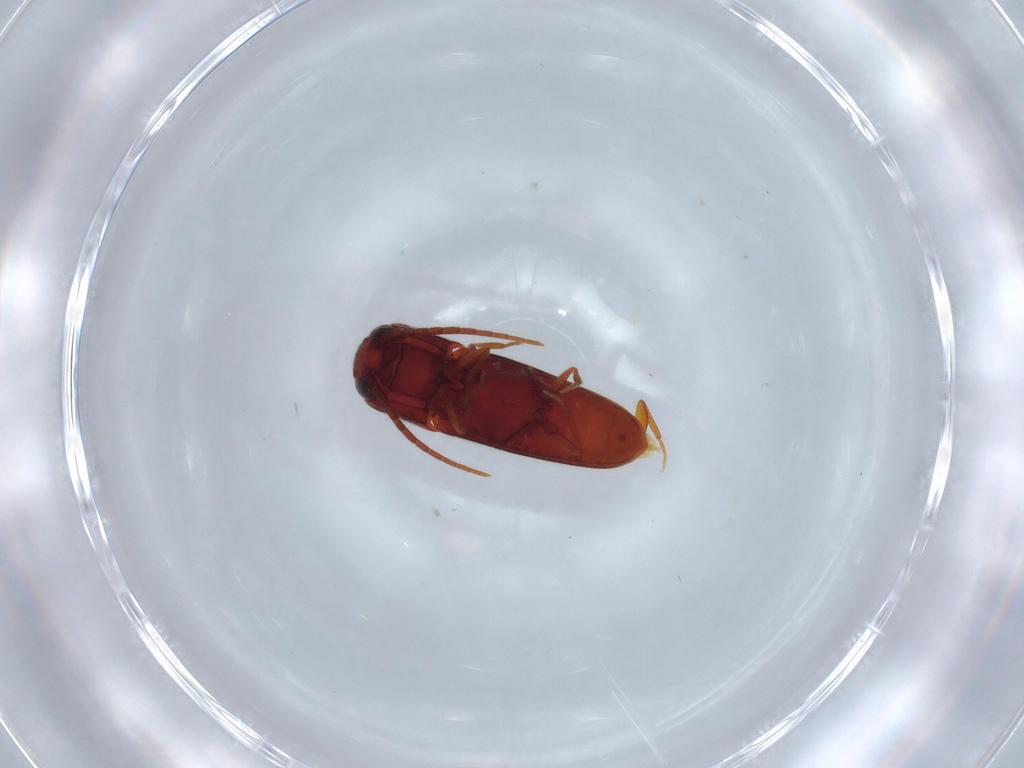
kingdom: Animalia
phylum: Arthropoda
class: Insecta
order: Coleoptera
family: Eucnemidae
